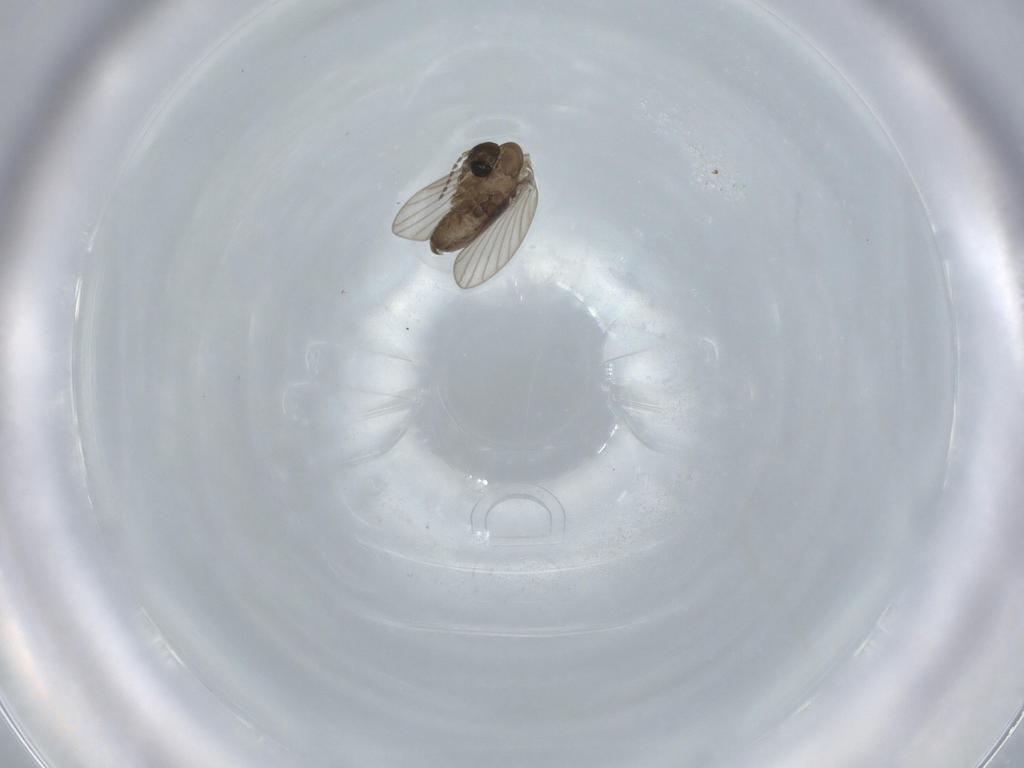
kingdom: Animalia
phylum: Arthropoda
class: Insecta
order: Diptera
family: Psychodidae
